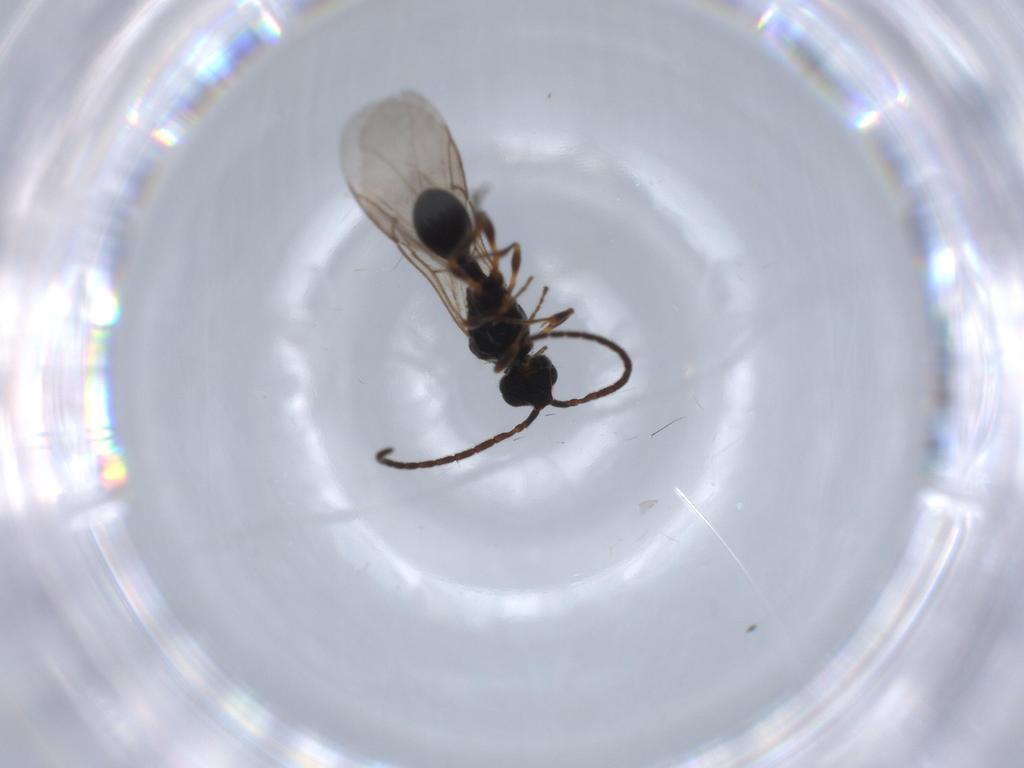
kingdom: Animalia
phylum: Arthropoda
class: Insecta
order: Hymenoptera
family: Diapriidae
